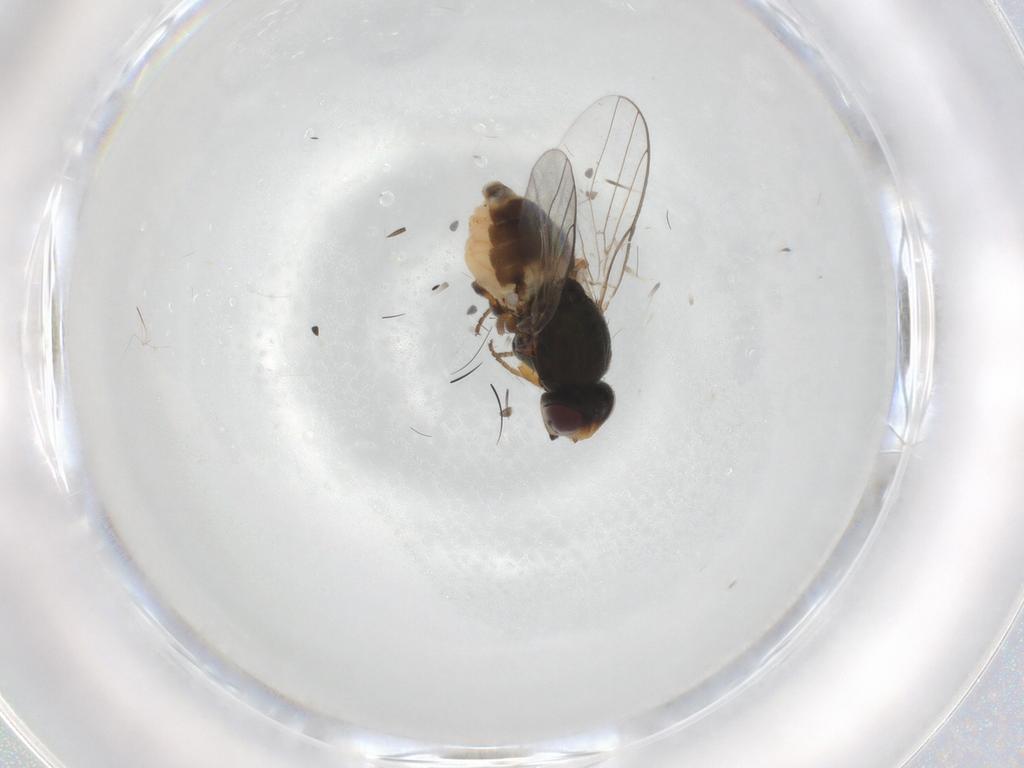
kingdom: Animalia
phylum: Arthropoda
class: Insecta
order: Diptera
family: Chloropidae
